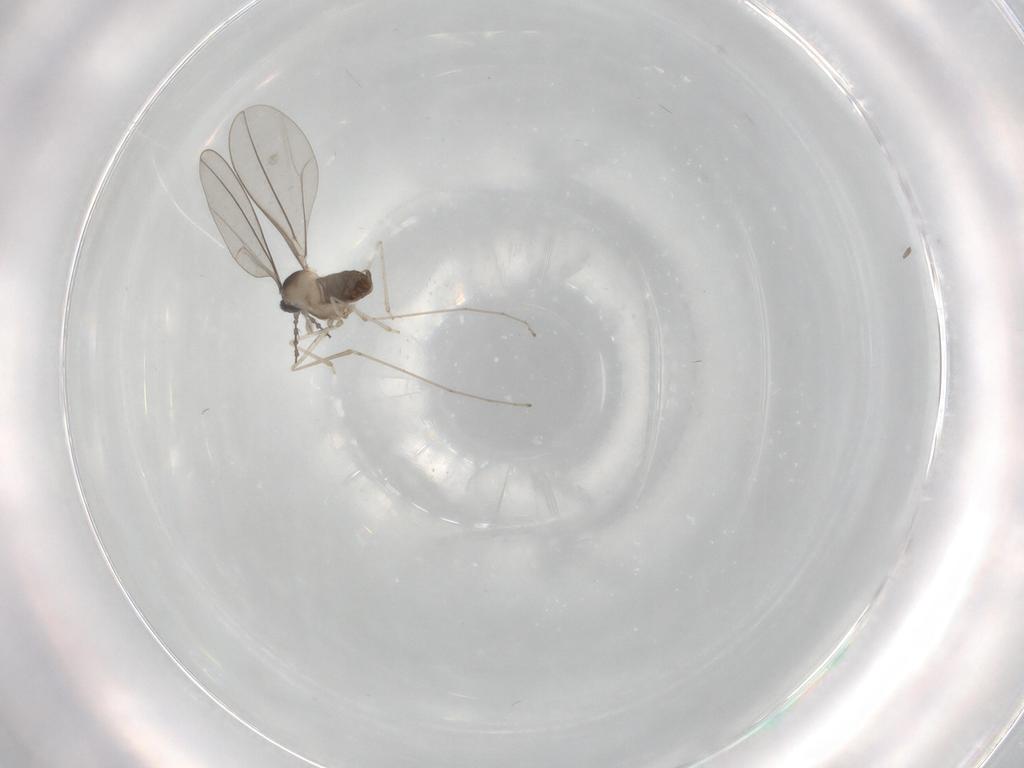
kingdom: Animalia
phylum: Arthropoda
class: Insecta
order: Diptera
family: Cecidomyiidae
